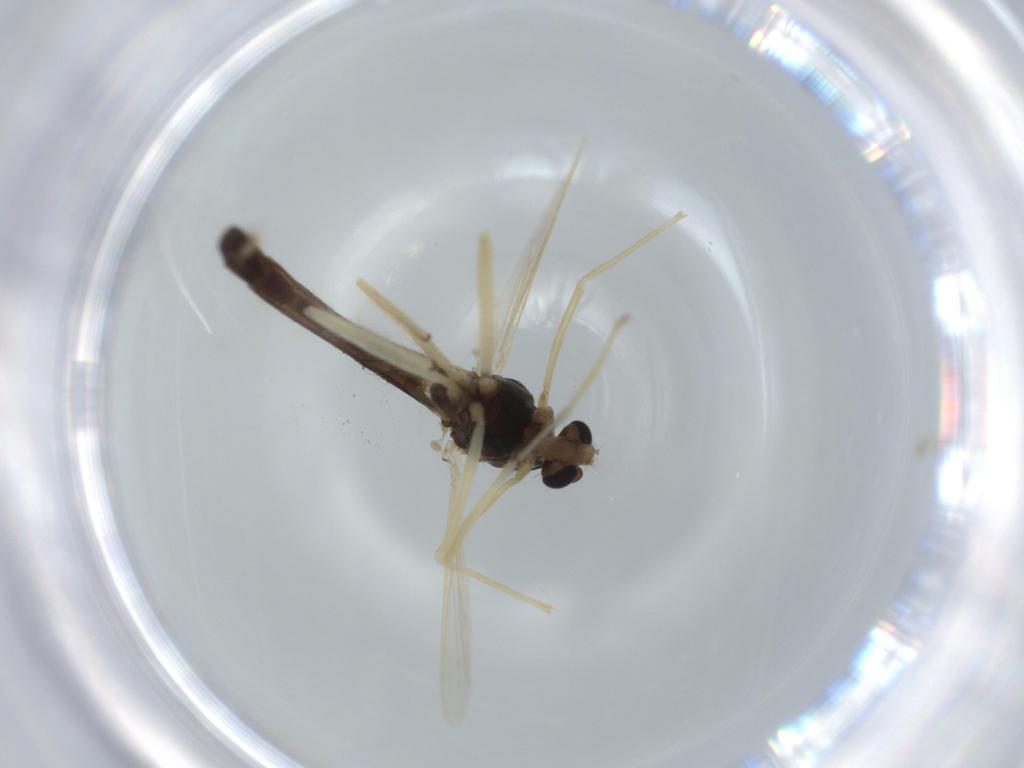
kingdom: Animalia
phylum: Arthropoda
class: Insecta
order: Diptera
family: Chironomidae
